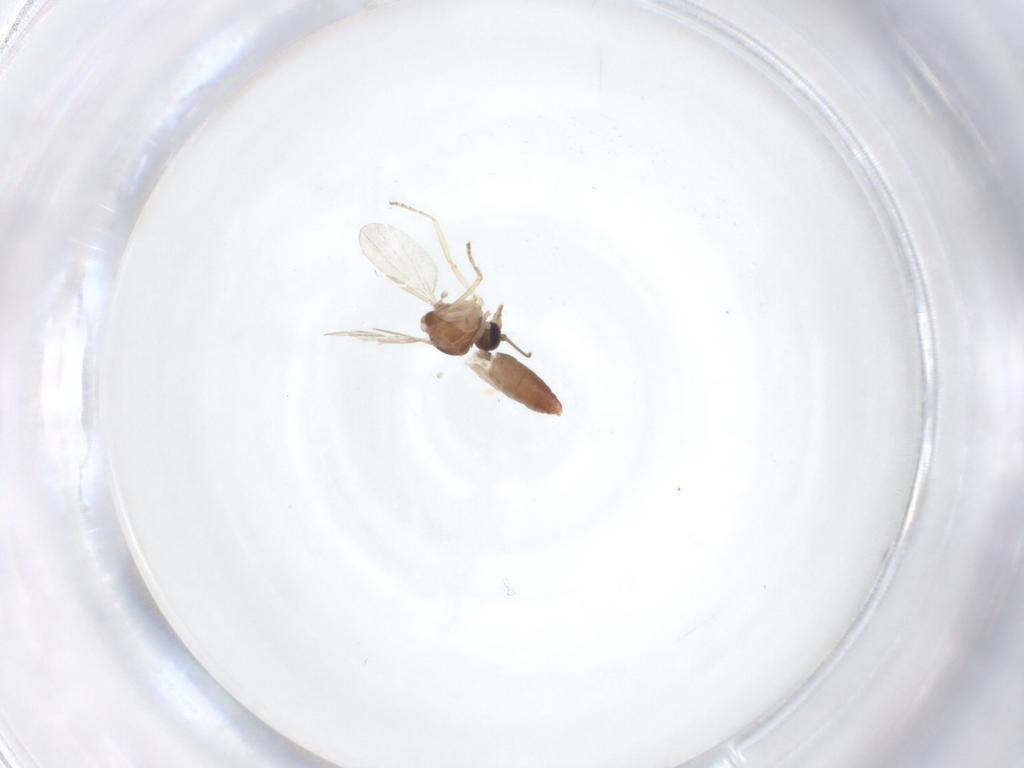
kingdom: Animalia
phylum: Arthropoda
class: Insecta
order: Diptera
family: Ceratopogonidae
